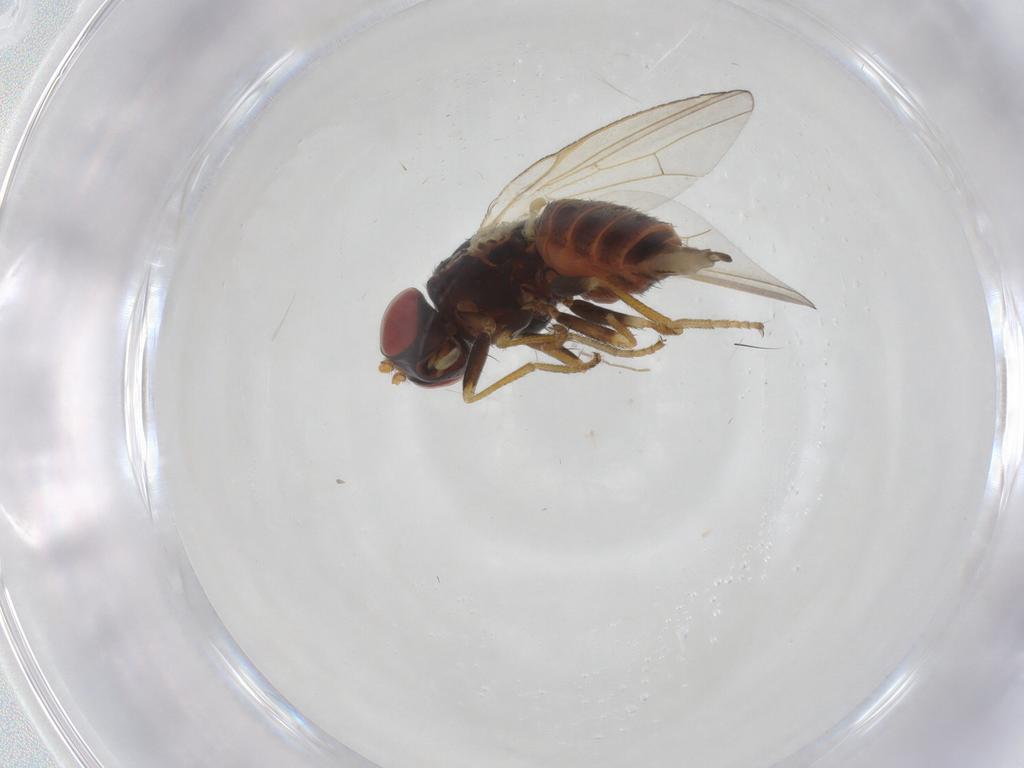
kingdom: Animalia
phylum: Arthropoda
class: Insecta
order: Diptera
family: Chamaemyiidae
